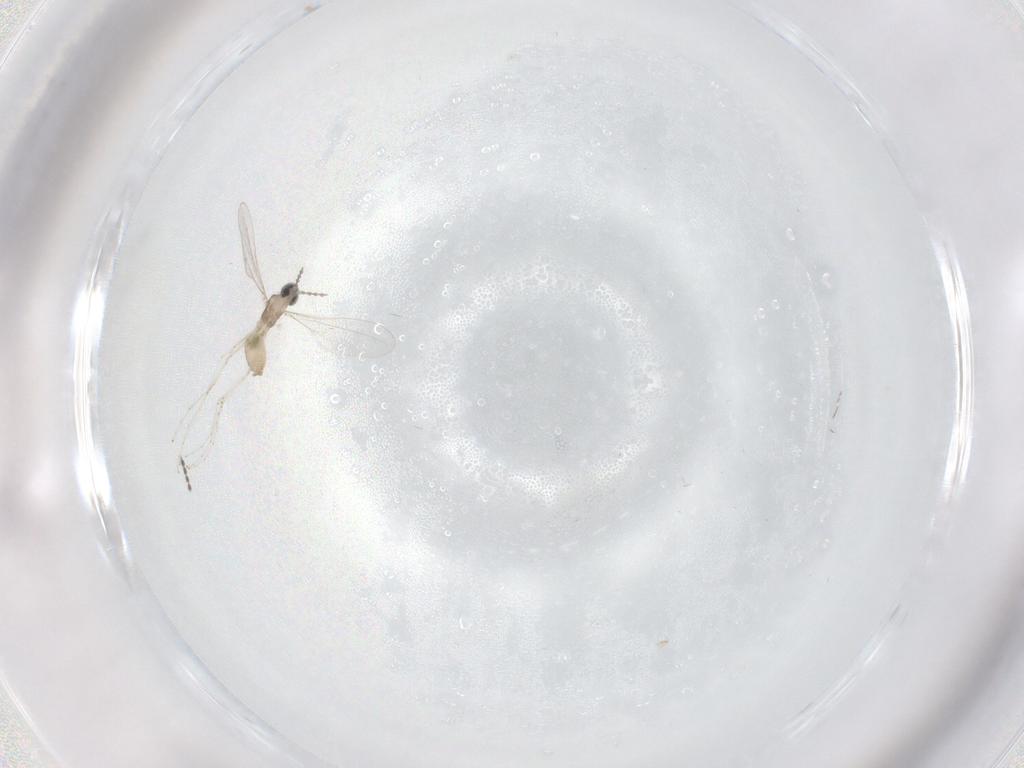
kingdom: Animalia
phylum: Arthropoda
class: Insecta
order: Diptera
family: Cecidomyiidae
